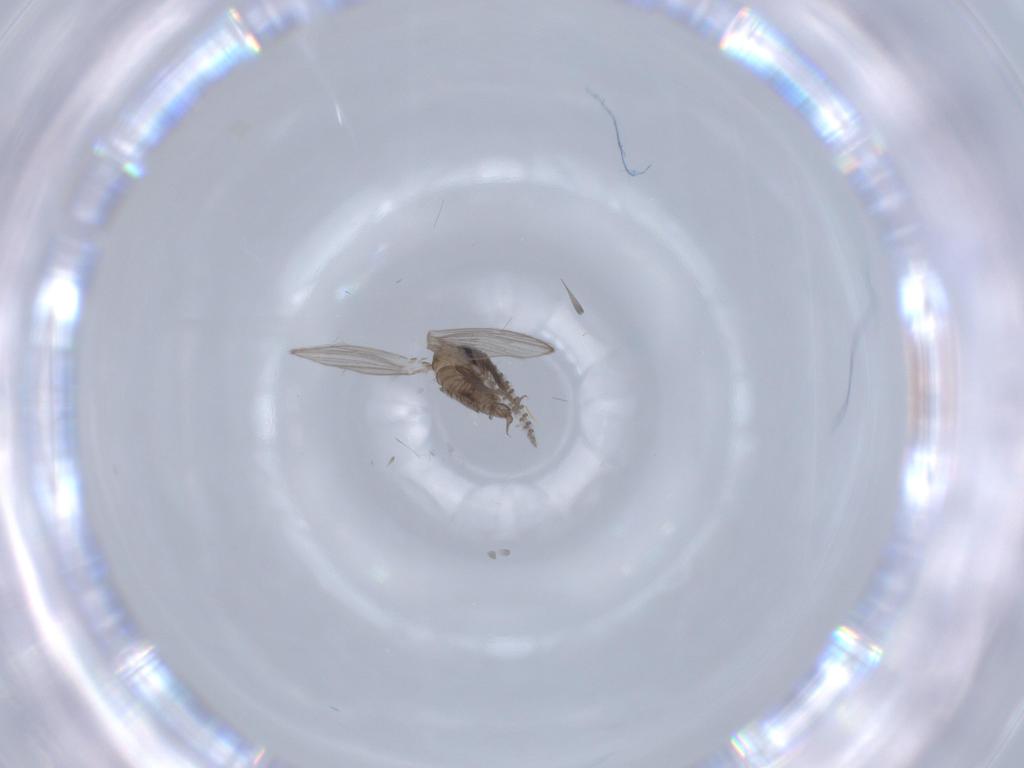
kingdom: Animalia
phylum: Arthropoda
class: Insecta
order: Diptera
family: Psychodidae
